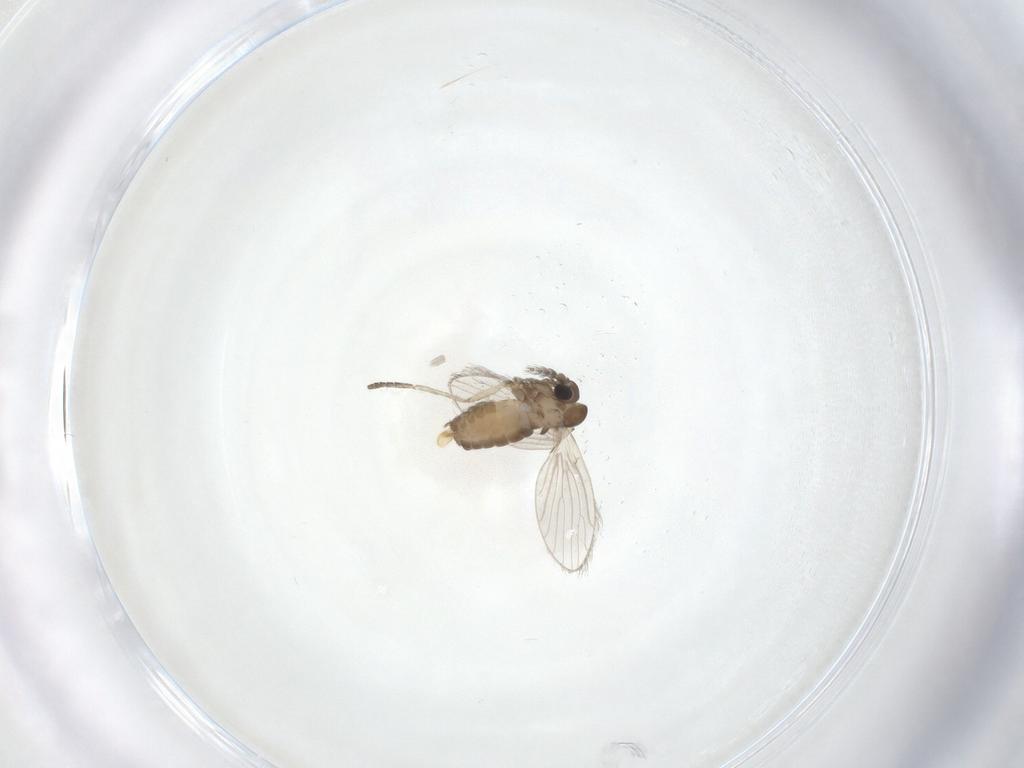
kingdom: Animalia
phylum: Arthropoda
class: Insecta
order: Diptera
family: Psychodidae
